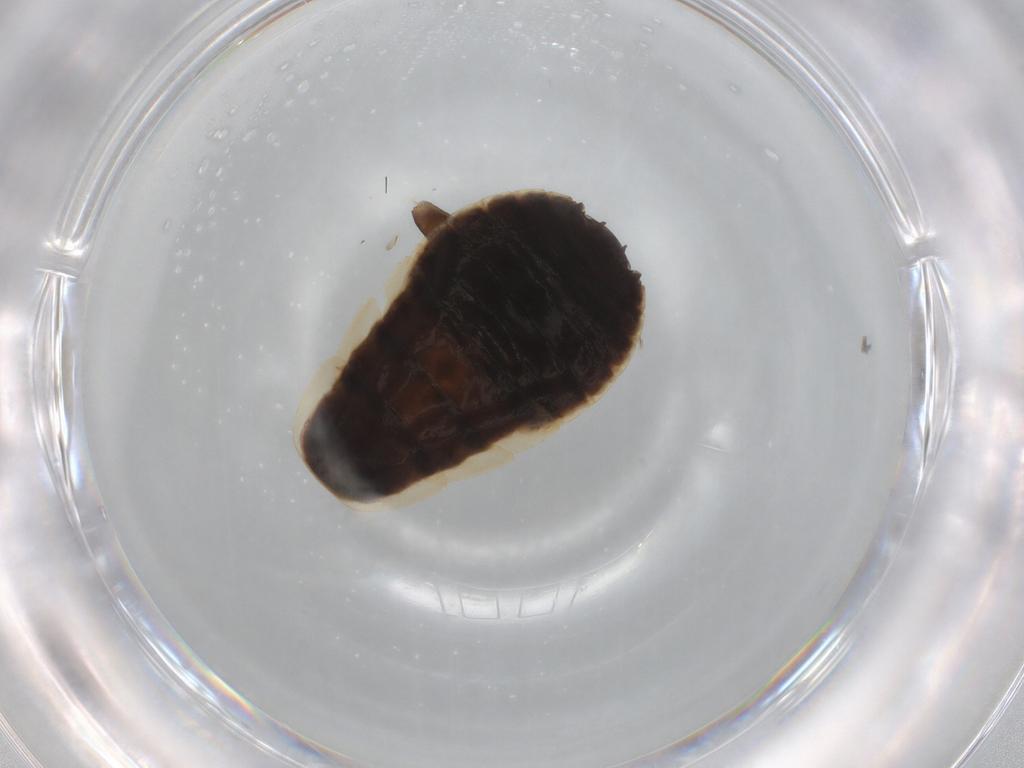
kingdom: Animalia
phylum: Arthropoda
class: Insecta
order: Blattodea
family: Ectobiidae
